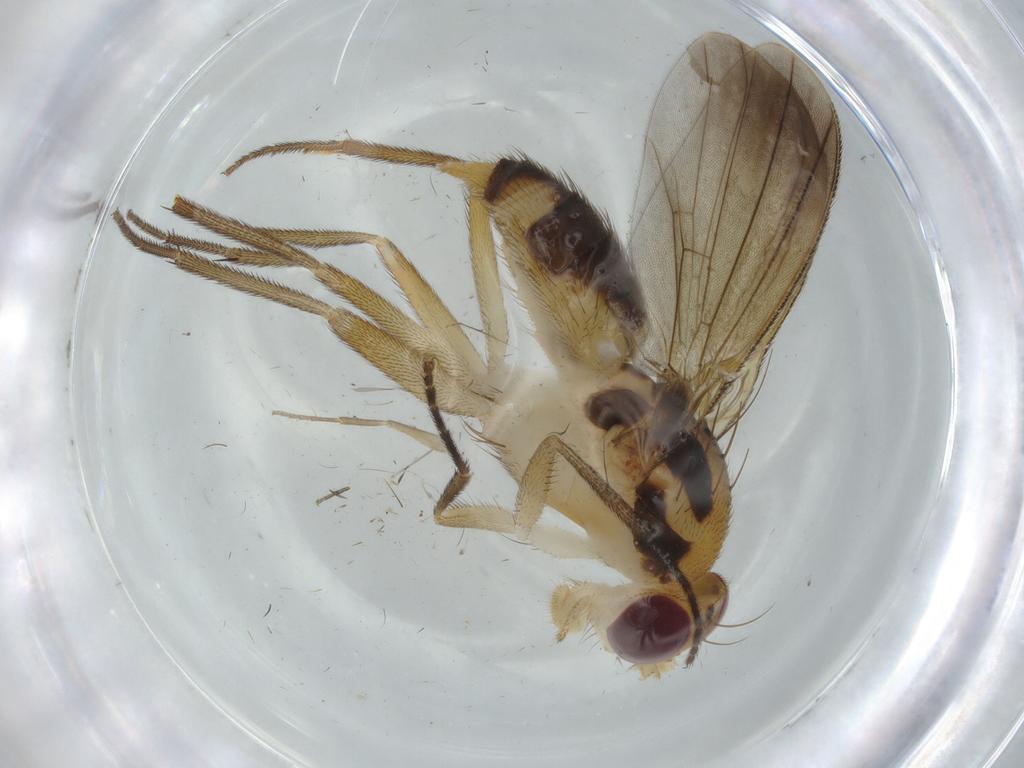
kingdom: Animalia
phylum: Arthropoda
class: Insecta
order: Diptera
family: Clusiidae
